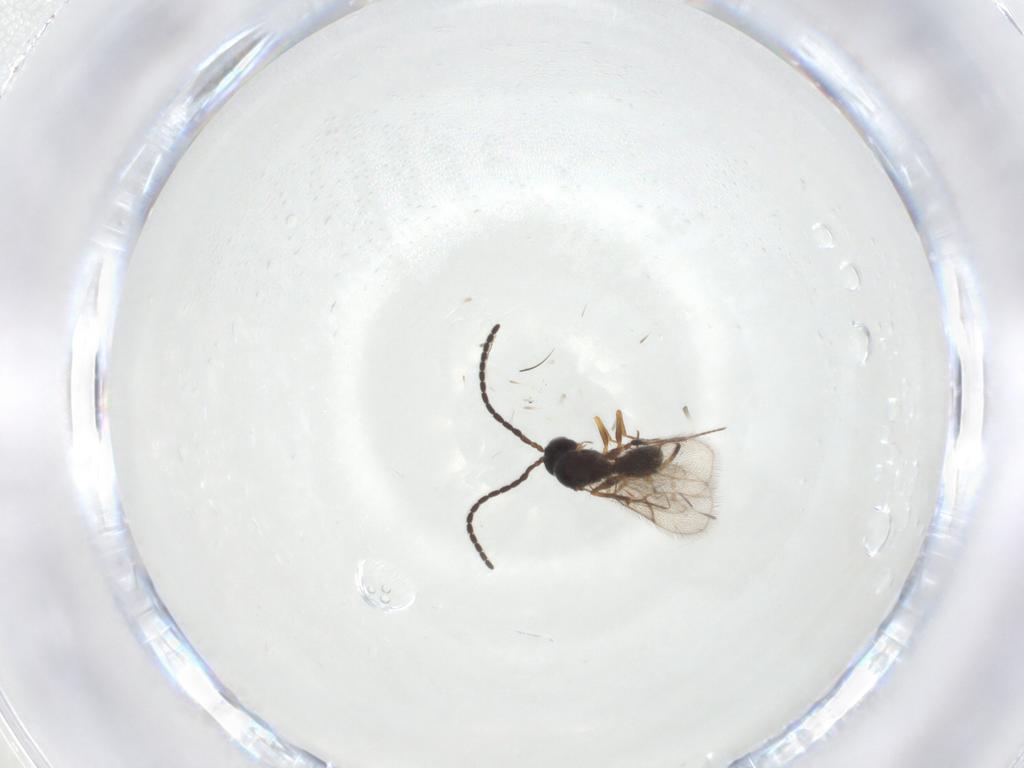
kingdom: Animalia
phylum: Arthropoda
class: Insecta
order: Hymenoptera
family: Figitidae
